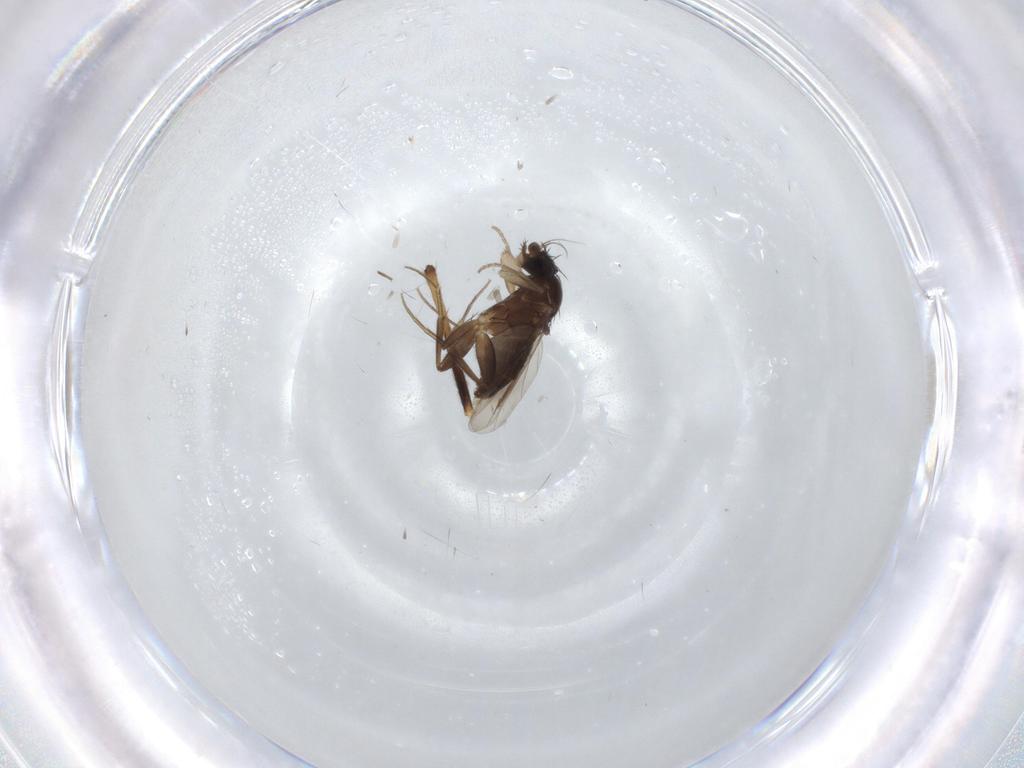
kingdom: Animalia
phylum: Arthropoda
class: Insecta
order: Diptera
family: Phoridae
